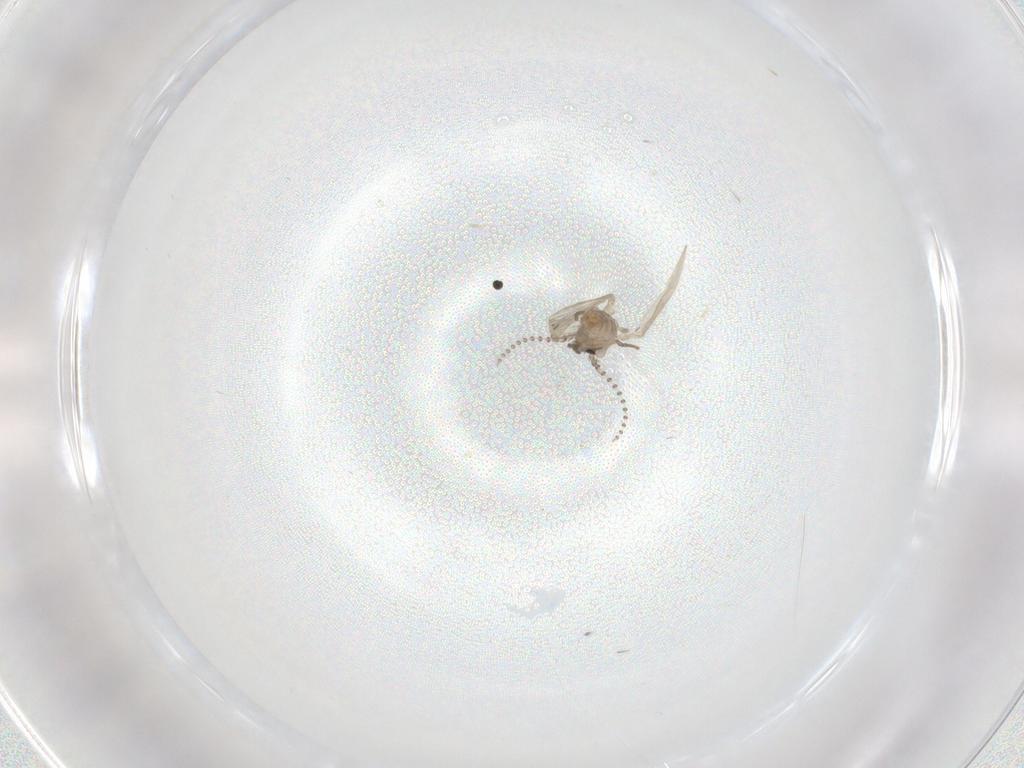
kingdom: Animalia
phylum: Arthropoda
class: Insecta
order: Diptera
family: Psychodidae
